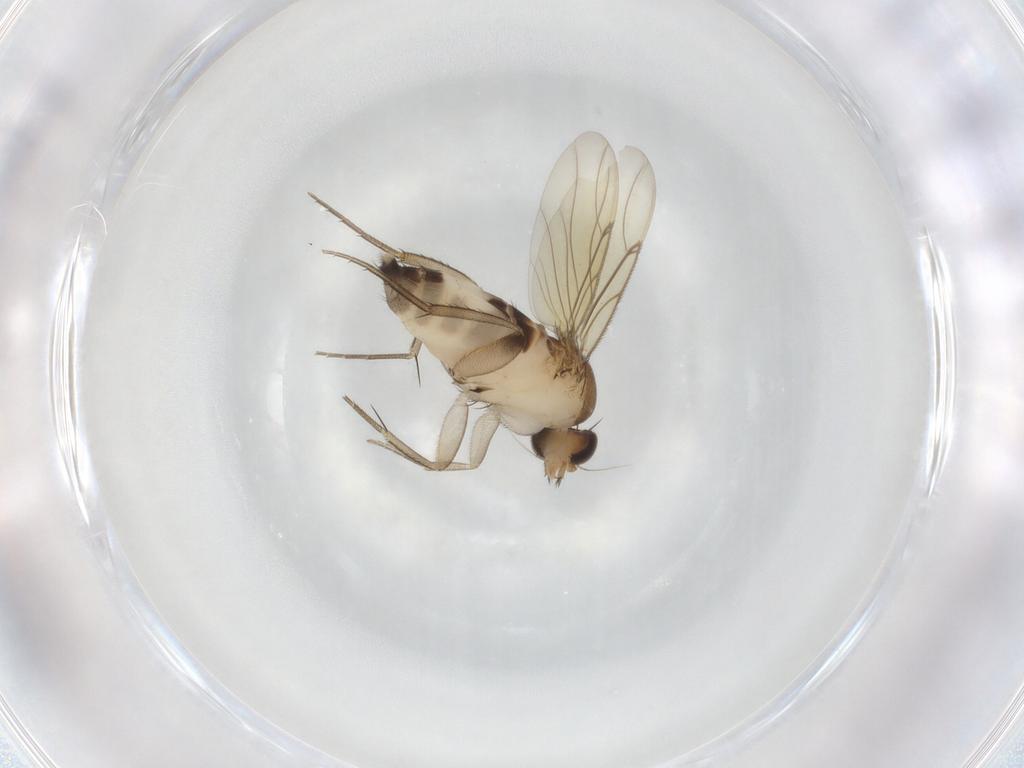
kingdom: Animalia
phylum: Arthropoda
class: Insecta
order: Diptera
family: Phoridae
